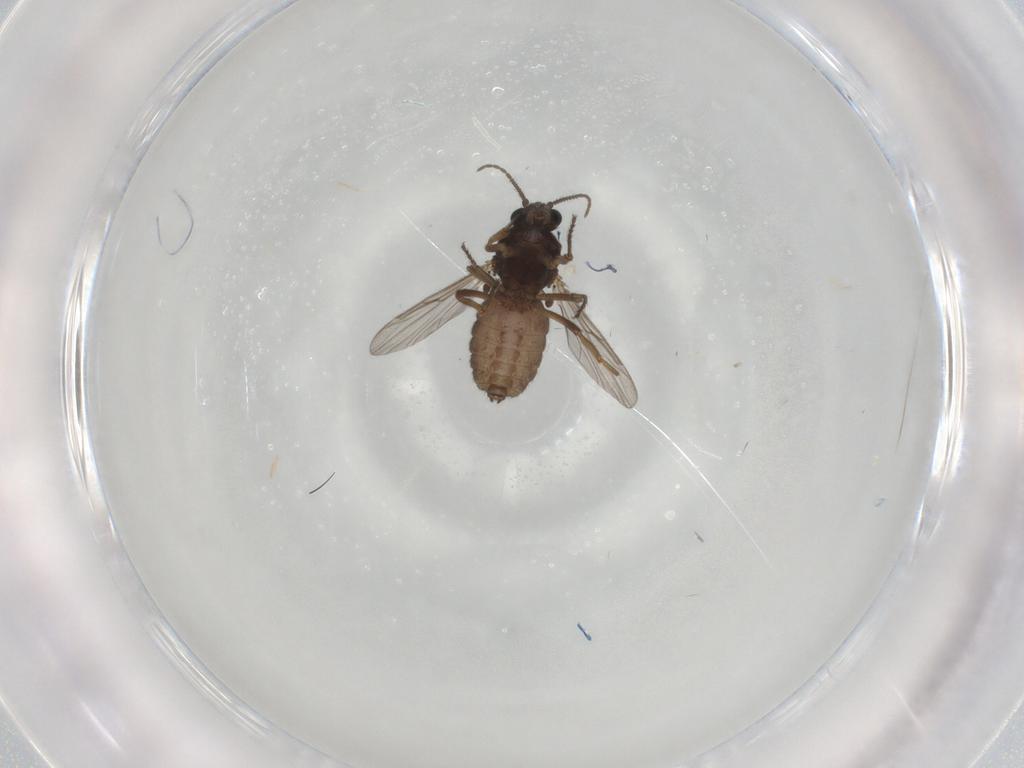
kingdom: Animalia
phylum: Arthropoda
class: Insecta
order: Diptera
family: Ceratopogonidae
